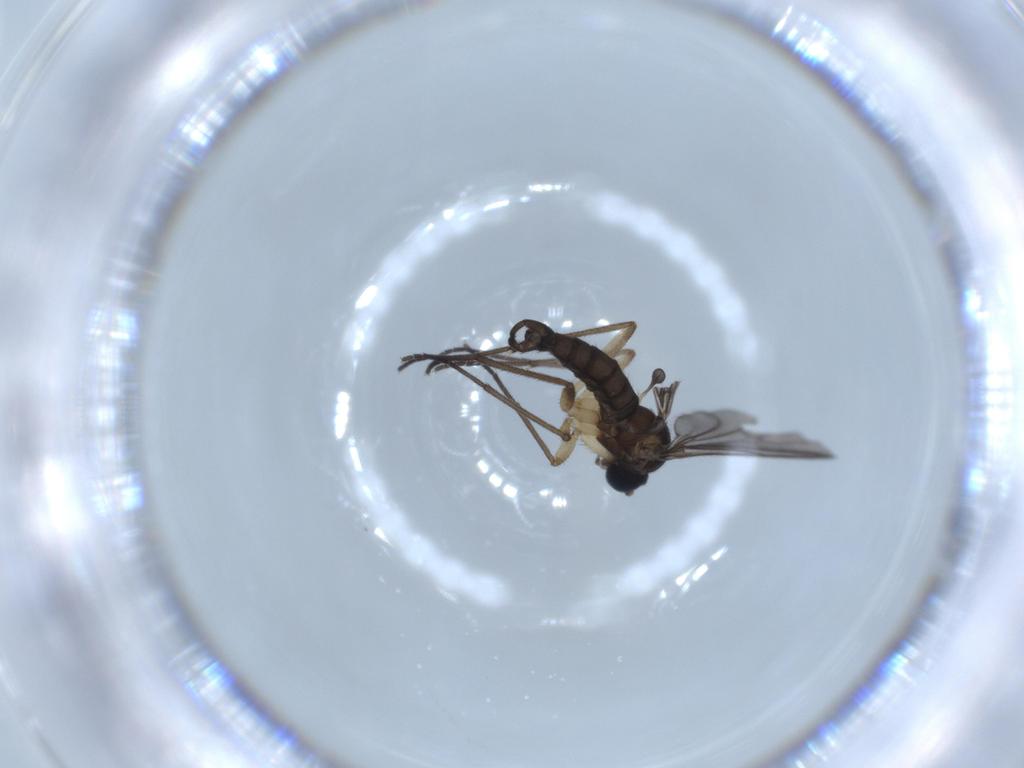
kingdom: Animalia
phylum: Arthropoda
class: Insecta
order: Diptera
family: Sciaridae
